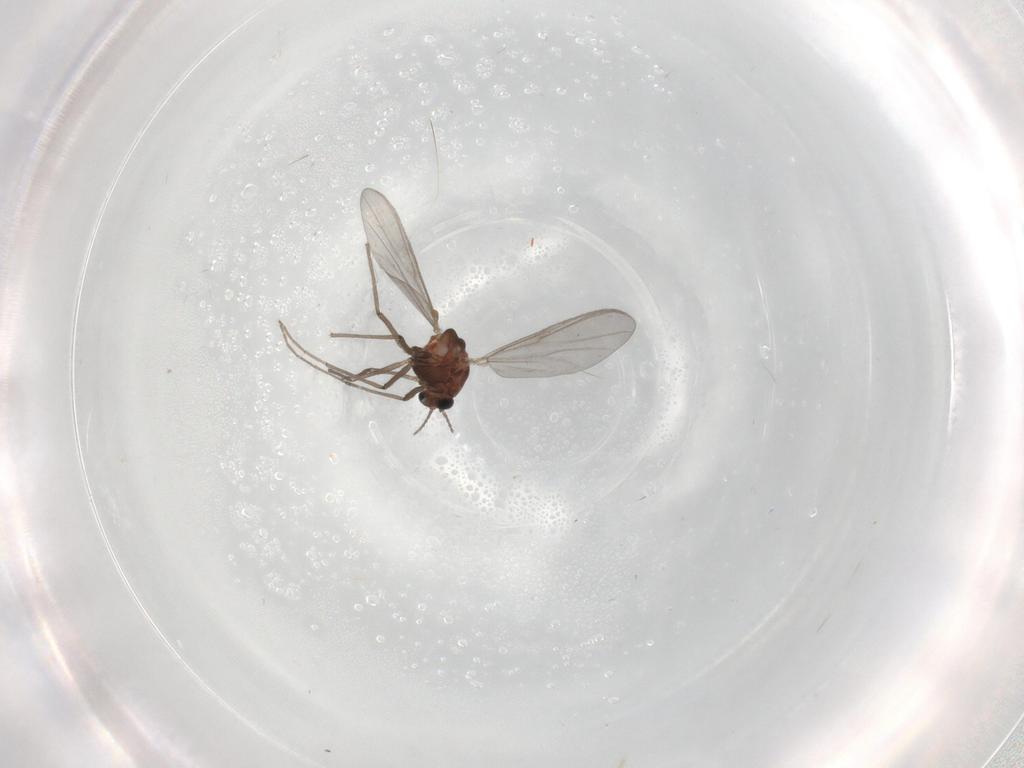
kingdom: Animalia
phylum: Arthropoda
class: Insecta
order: Diptera
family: Chironomidae
